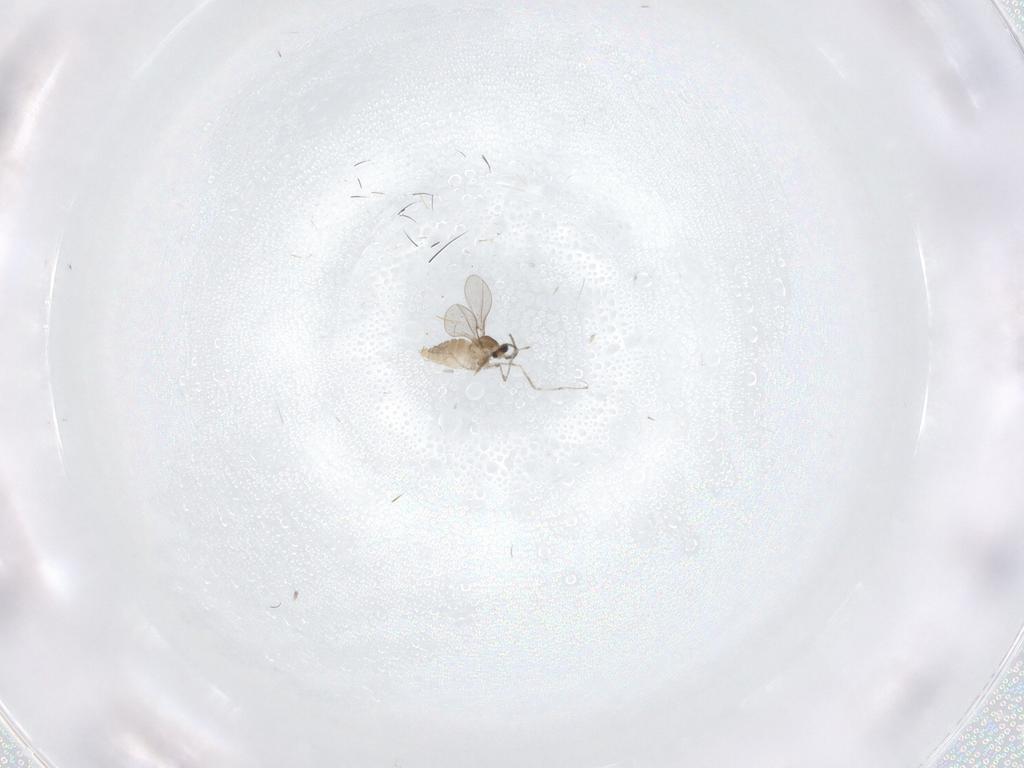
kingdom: Animalia
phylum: Arthropoda
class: Insecta
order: Diptera
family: Cecidomyiidae
